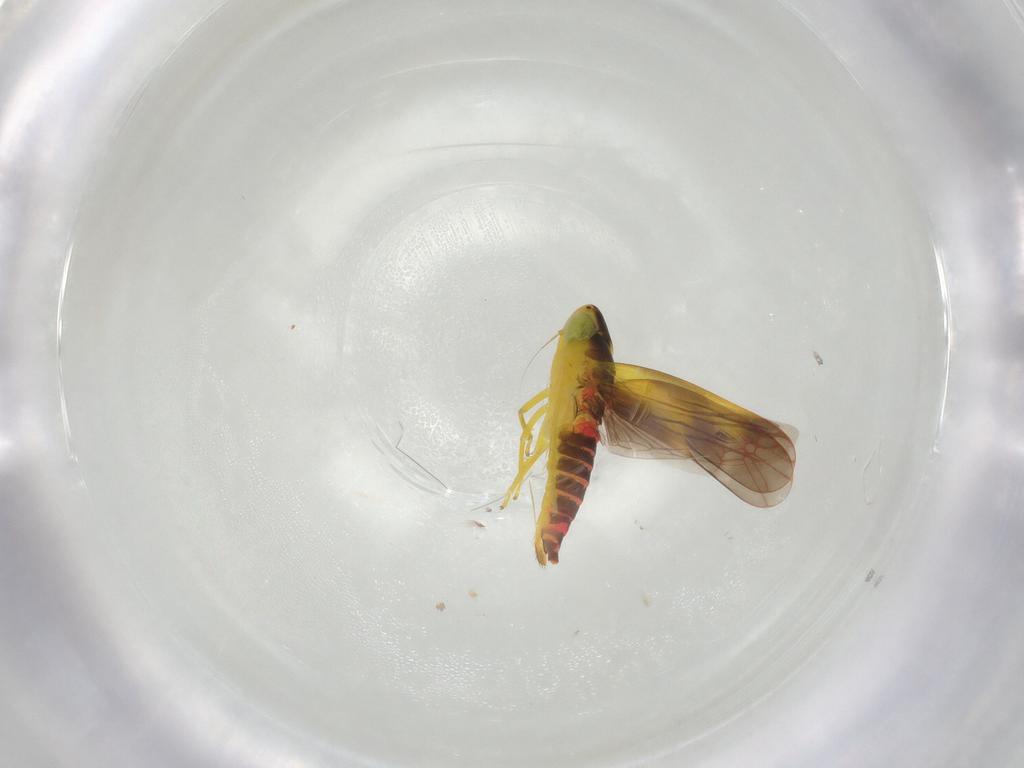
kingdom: Animalia
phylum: Arthropoda
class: Insecta
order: Hemiptera
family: Cicadellidae
